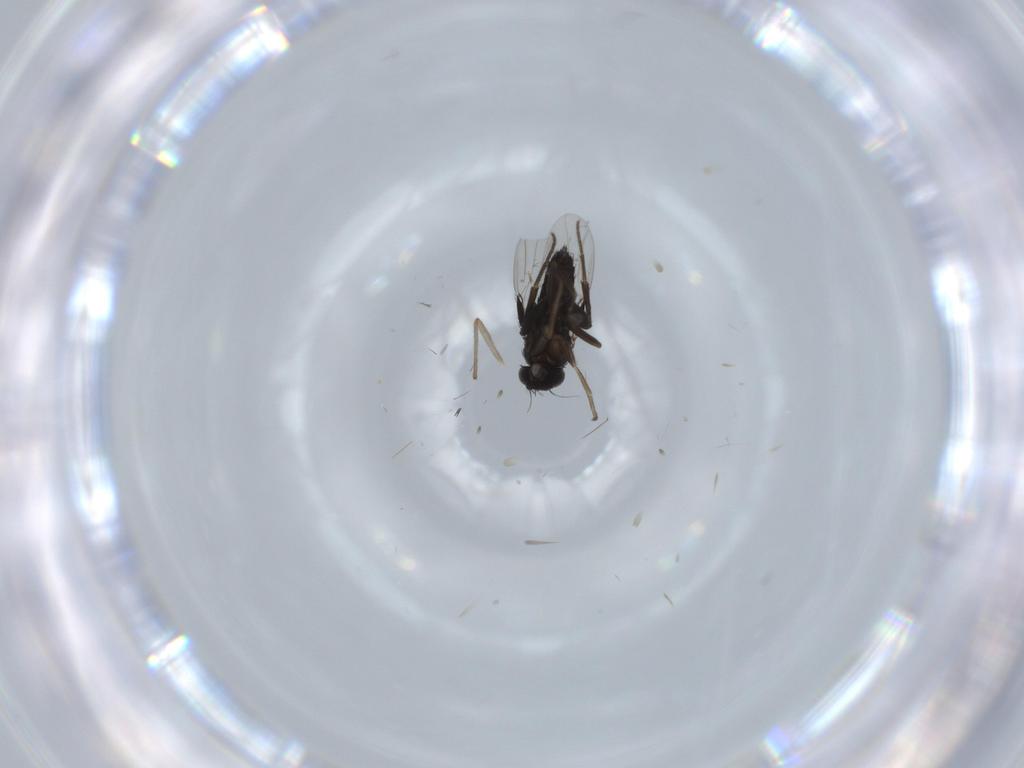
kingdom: Animalia
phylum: Arthropoda
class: Insecta
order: Diptera
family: Phoridae
